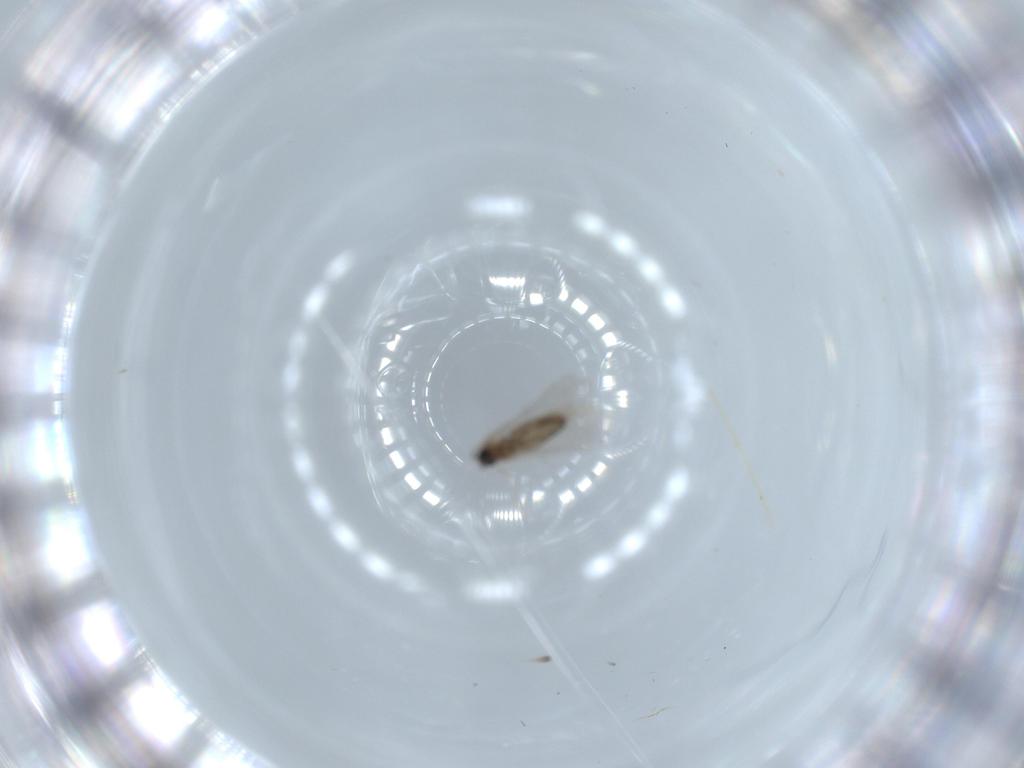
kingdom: Animalia
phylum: Arthropoda
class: Insecta
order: Diptera
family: Cecidomyiidae
